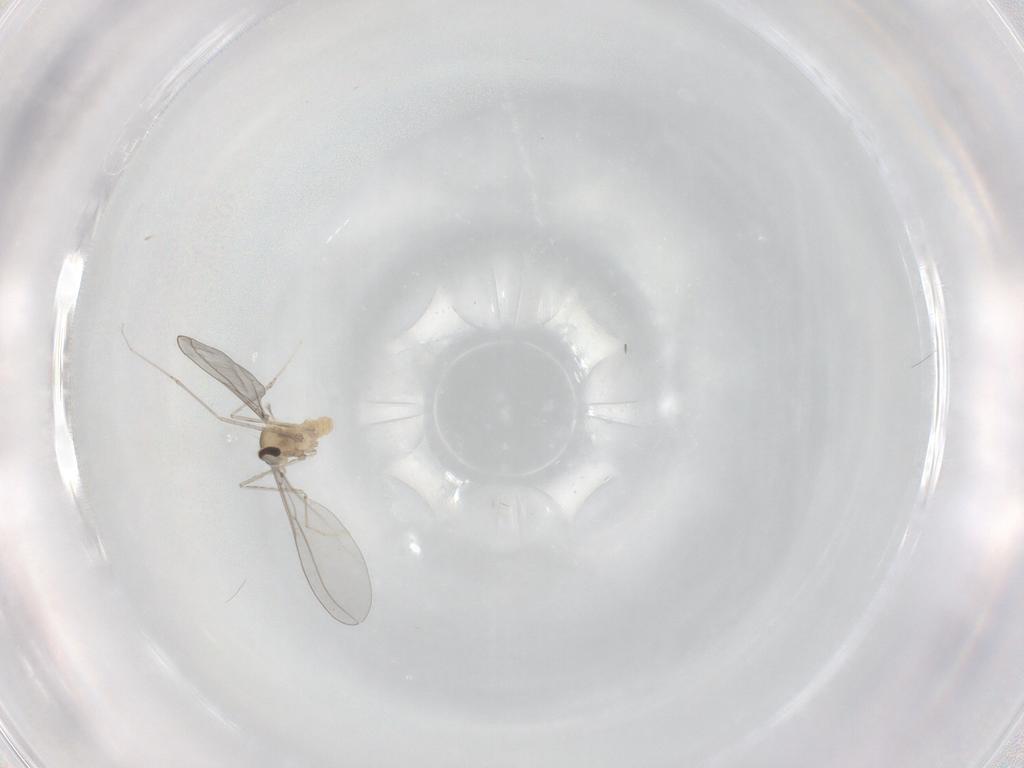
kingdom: Animalia
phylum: Arthropoda
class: Insecta
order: Diptera
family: Cecidomyiidae
